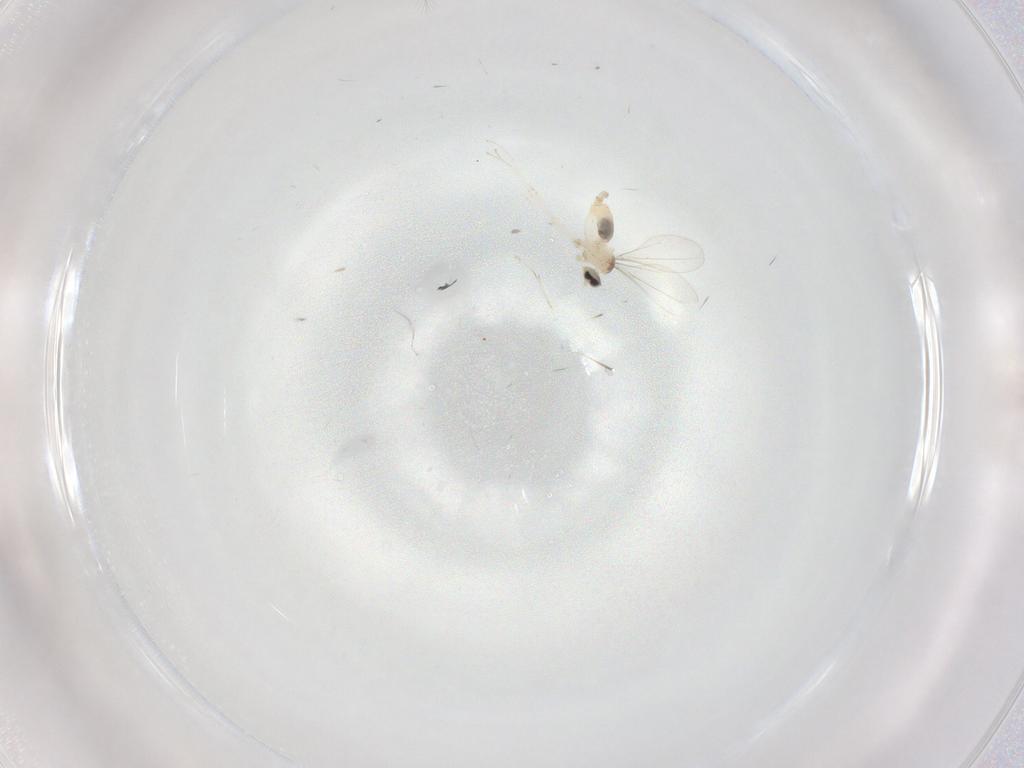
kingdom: Animalia
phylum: Arthropoda
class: Insecta
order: Diptera
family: Cecidomyiidae
